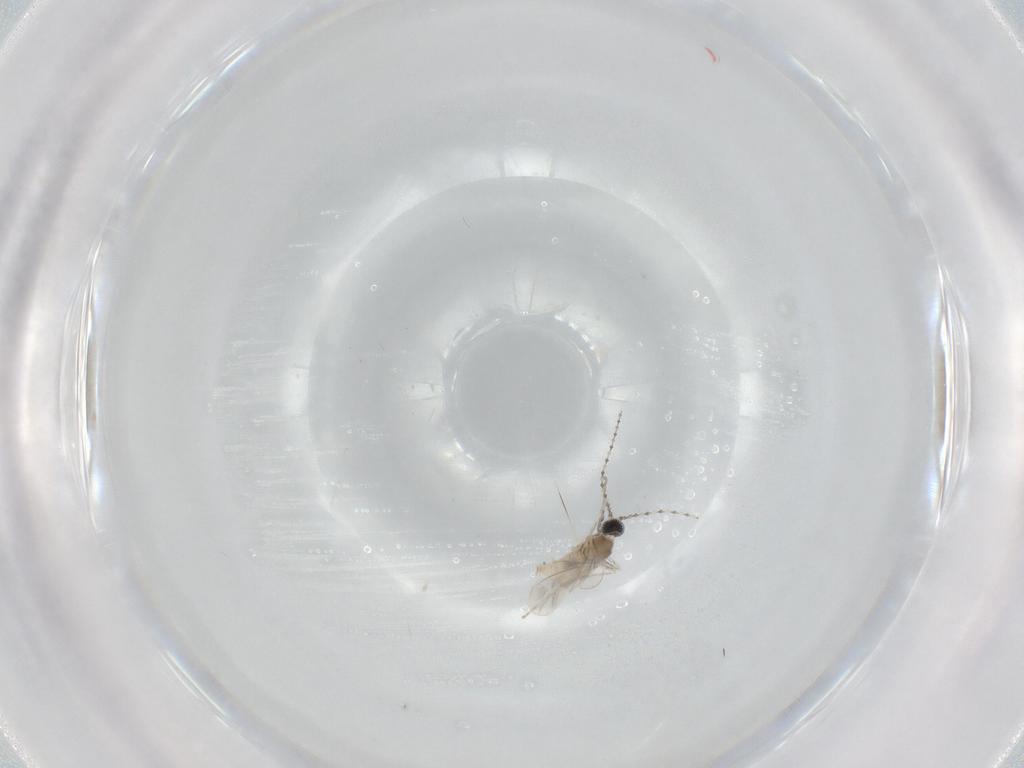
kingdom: Animalia
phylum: Arthropoda
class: Insecta
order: Diptera
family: Cecidomyiidae
